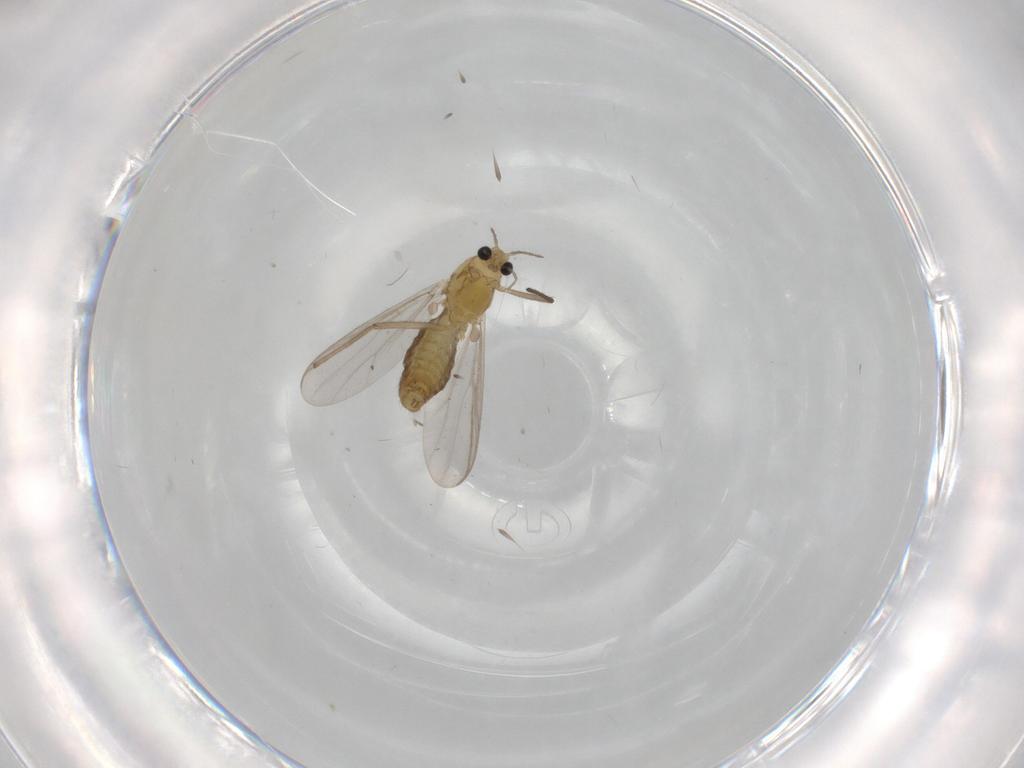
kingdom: Animalia
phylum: Arthropoda
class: Insecta
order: Diptera
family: Chironomidae
